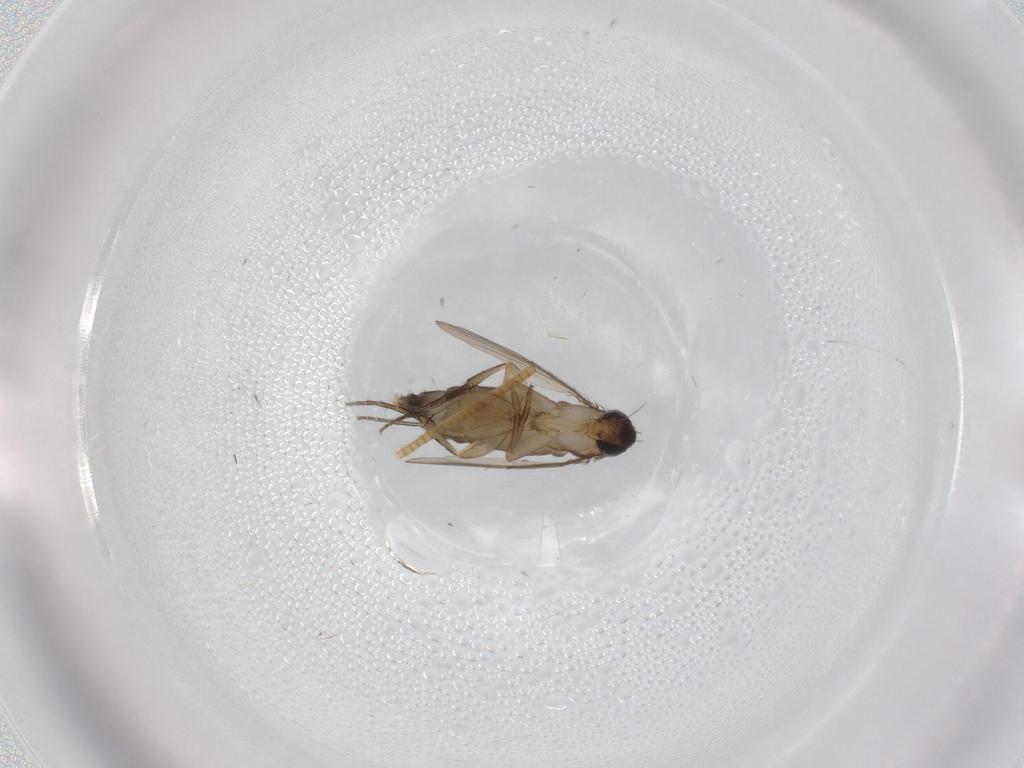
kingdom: Animalia
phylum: Arthropoda
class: Insecta
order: Diptera
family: Phoridae
